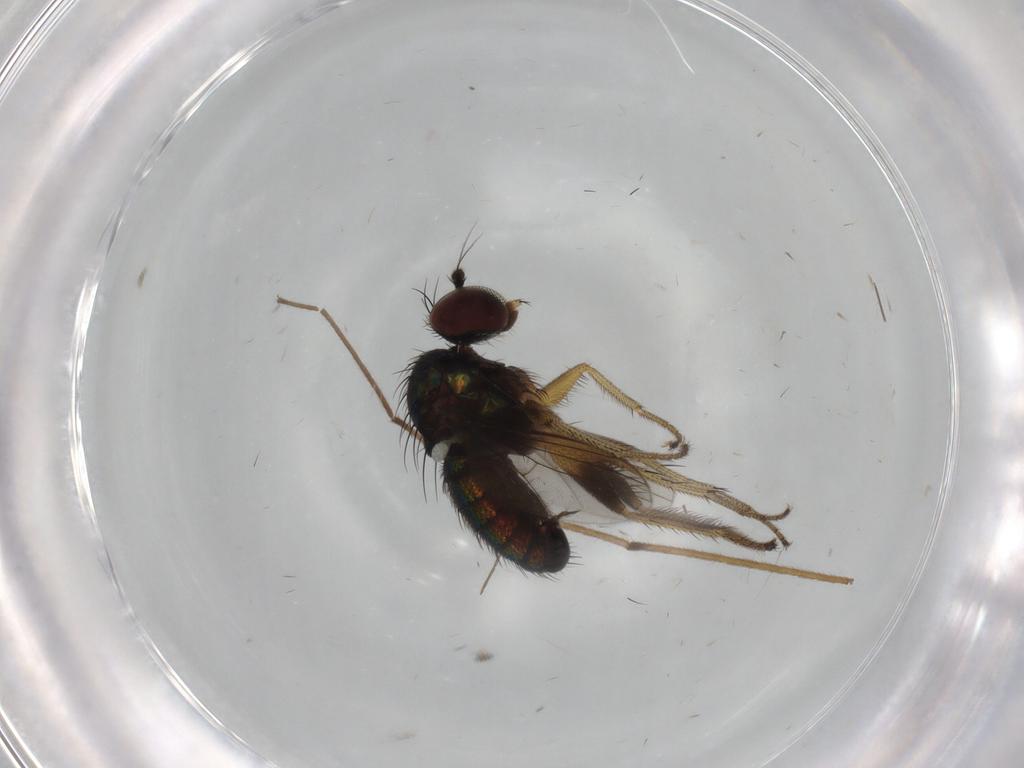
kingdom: Animalia
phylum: Arthropoda
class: Insecta
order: Diptera
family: Dolichopodidae
